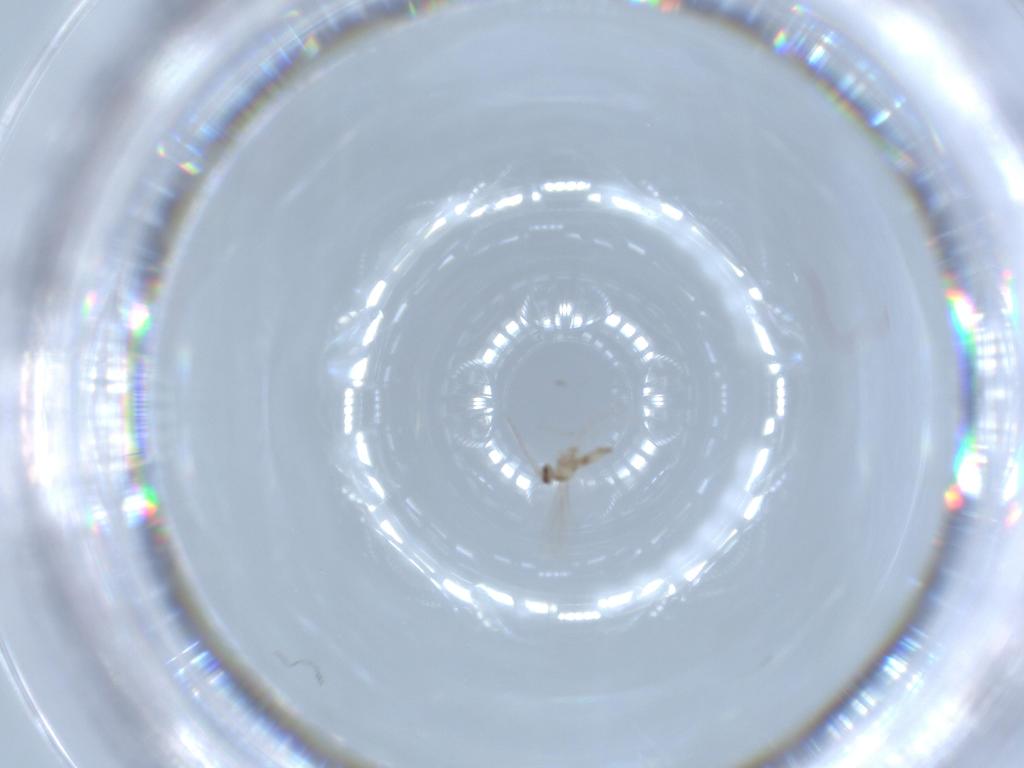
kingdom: Animalia
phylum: Arthropoda
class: Insecta
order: Diptera
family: Cecidomyiidae
